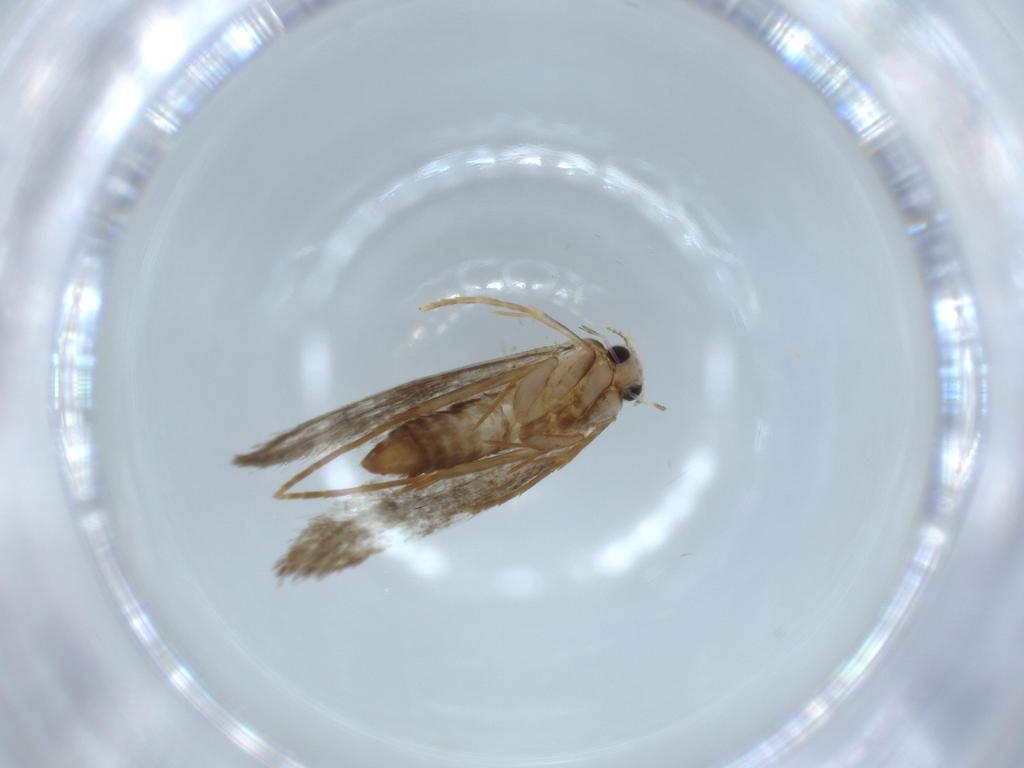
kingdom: Animalia
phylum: Arthropoda
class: Insecta
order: Lepidoptera
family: Tineidae
